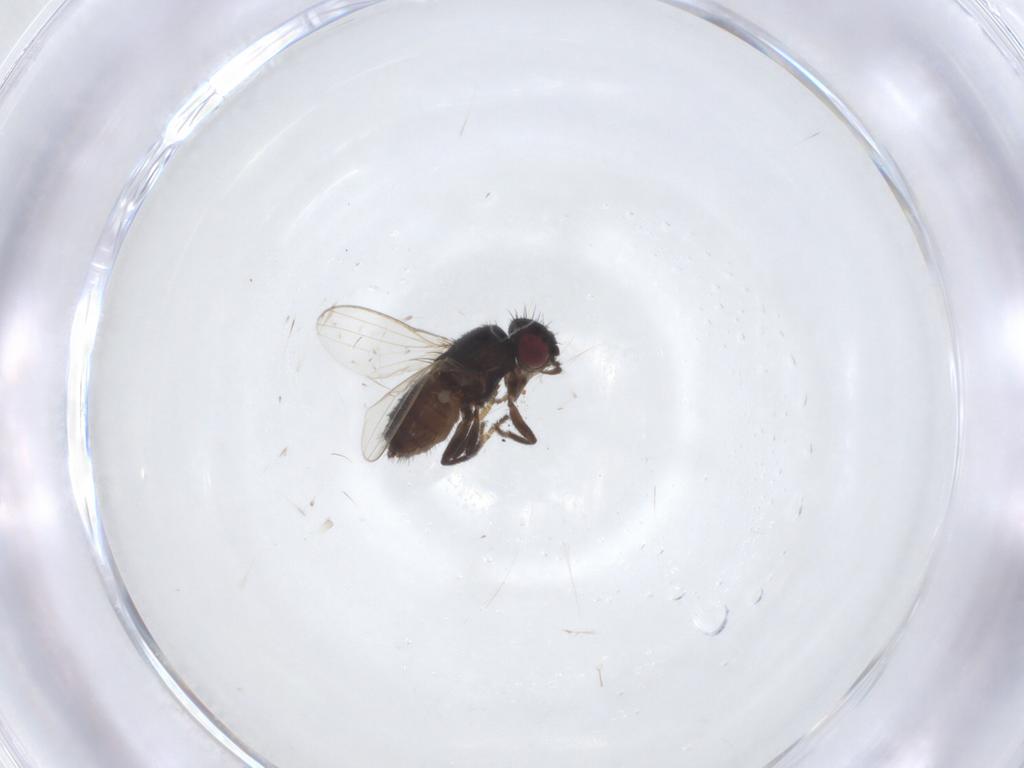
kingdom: Animalia
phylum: Arthropoda
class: Insecta
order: Diptera
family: Milichiidae
